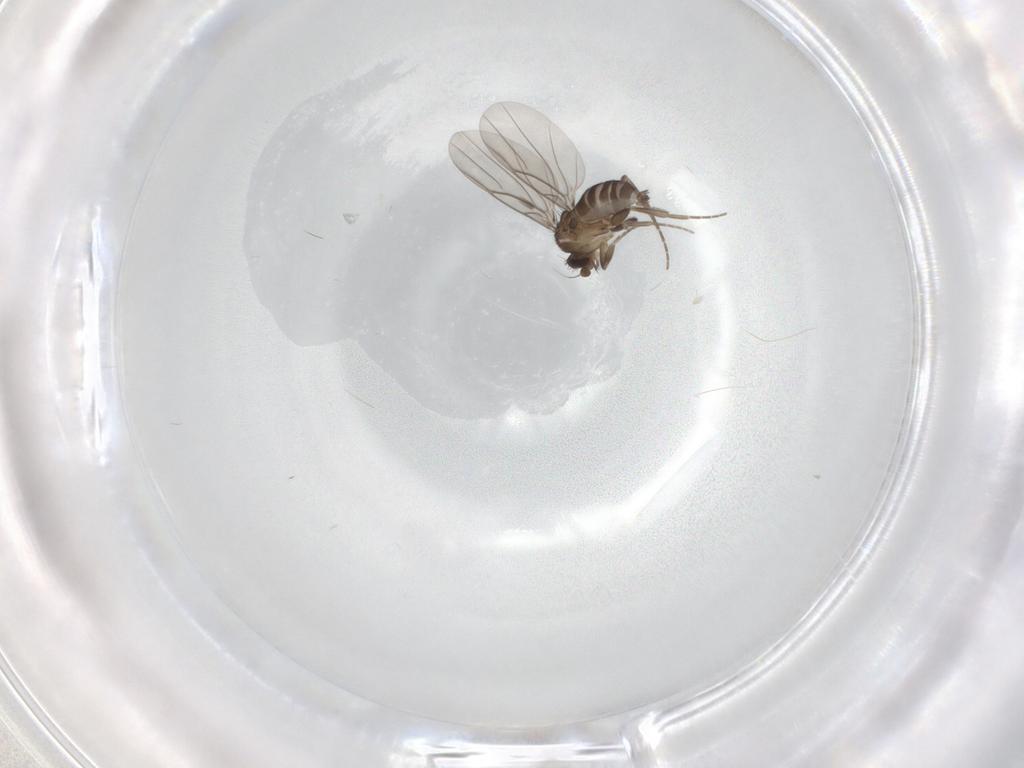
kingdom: Animalia
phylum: Arthropoda
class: Insecta
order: Diptera
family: Phoridae
